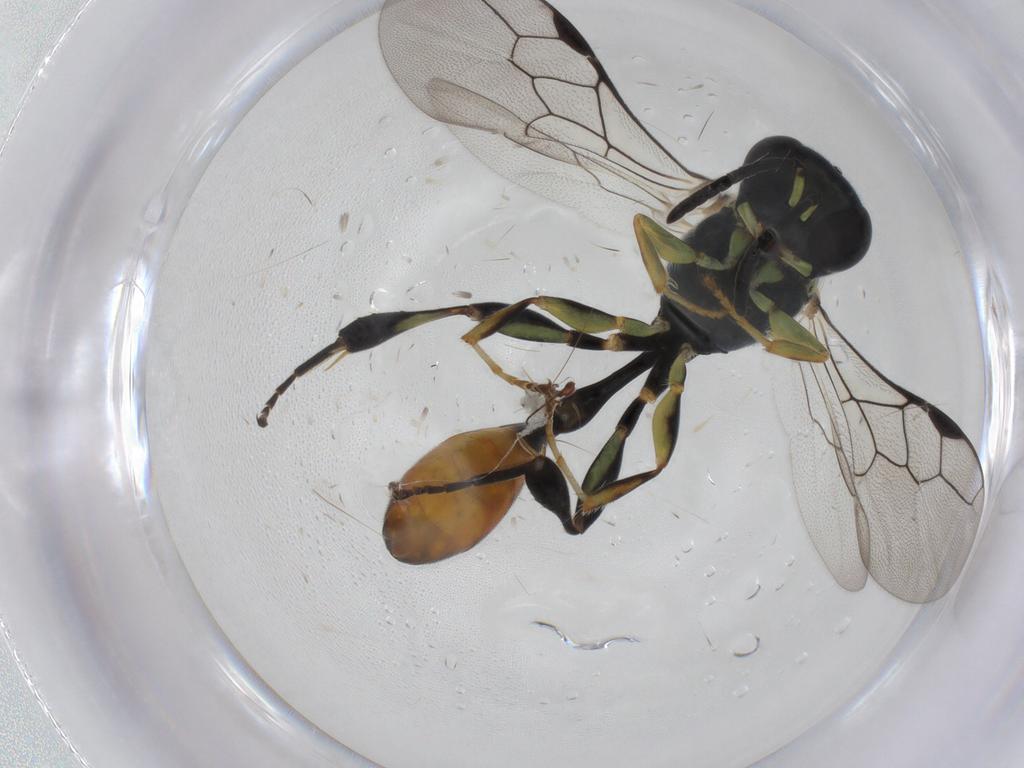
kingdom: Animalia
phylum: Arthropoda
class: Insecta
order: Hymenoptera
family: Crabronidae
